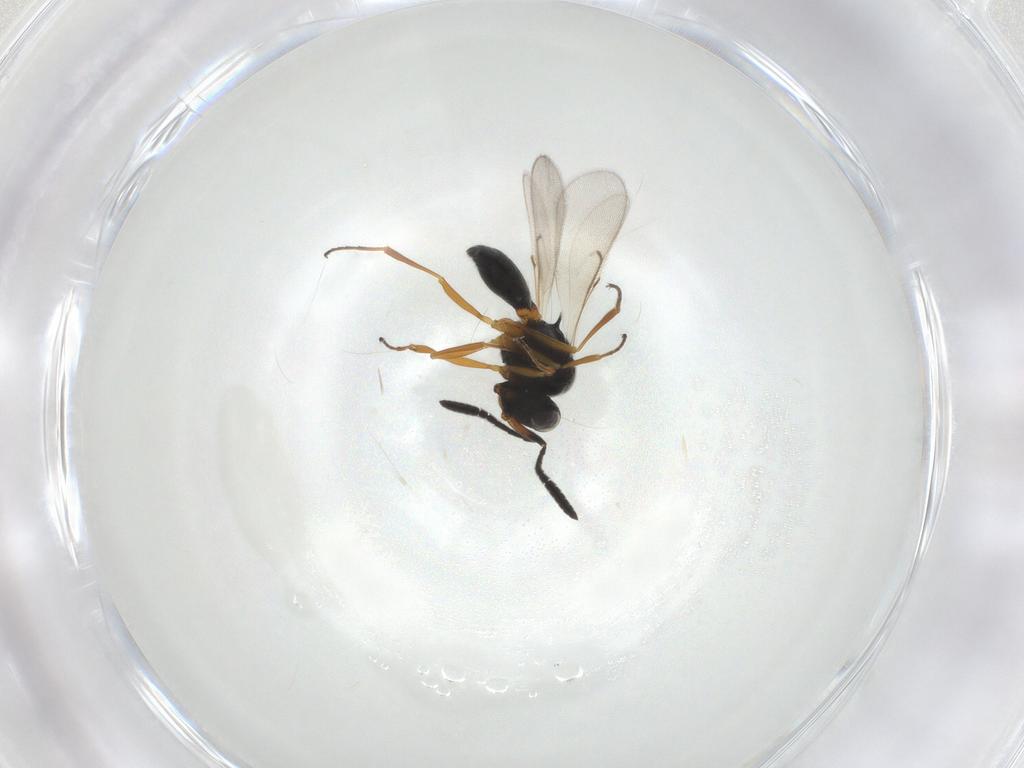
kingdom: Animalia
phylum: Arthropoda
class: Insecta
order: Hymenoptera
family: Scelionidae
